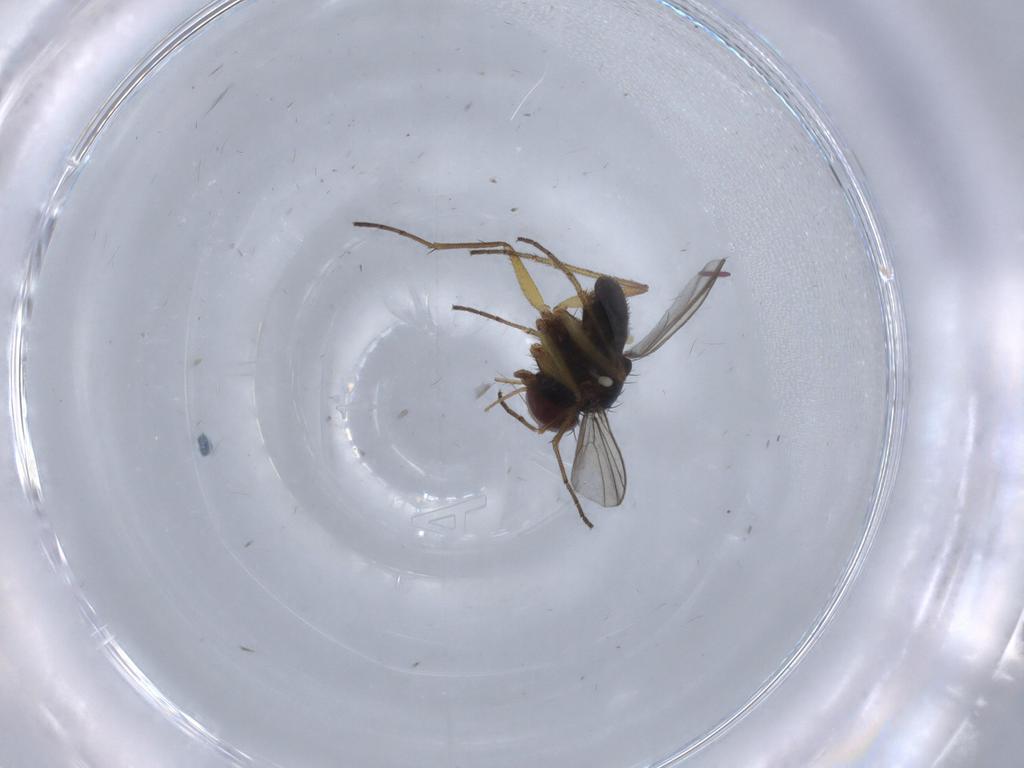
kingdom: Animalia
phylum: Arthropoda
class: Insecta
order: Diptera
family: Dolichopodidae
